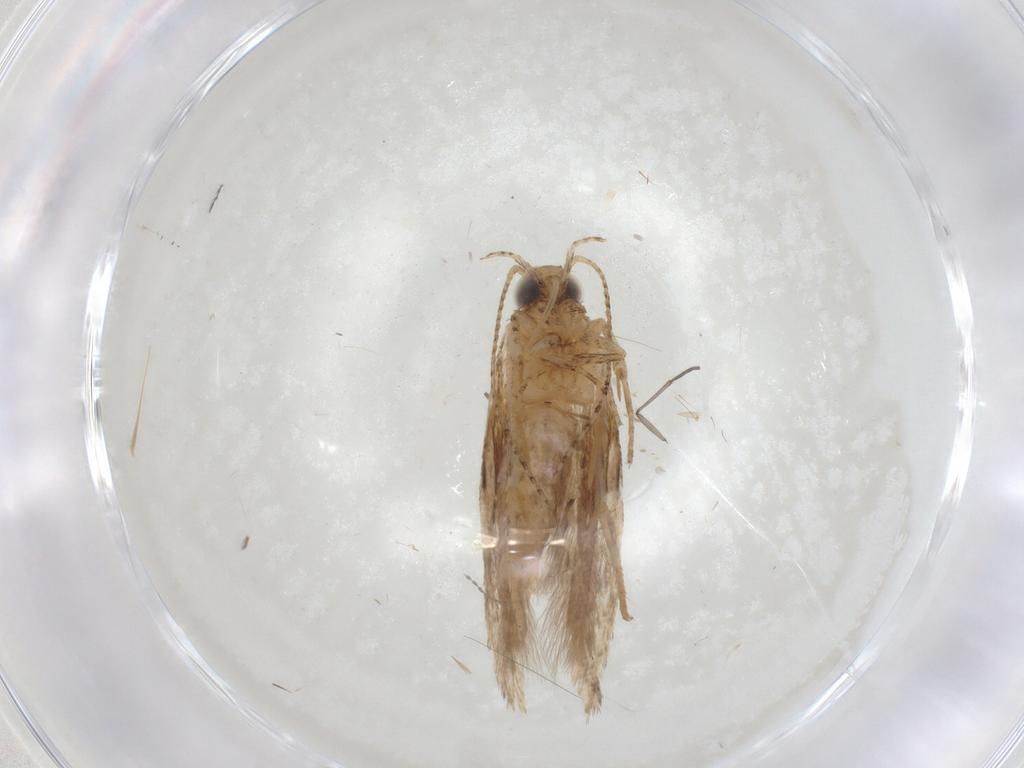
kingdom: Animalia
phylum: Arthropoda
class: Insecta
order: Lepidoptera
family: Gelechiidae
